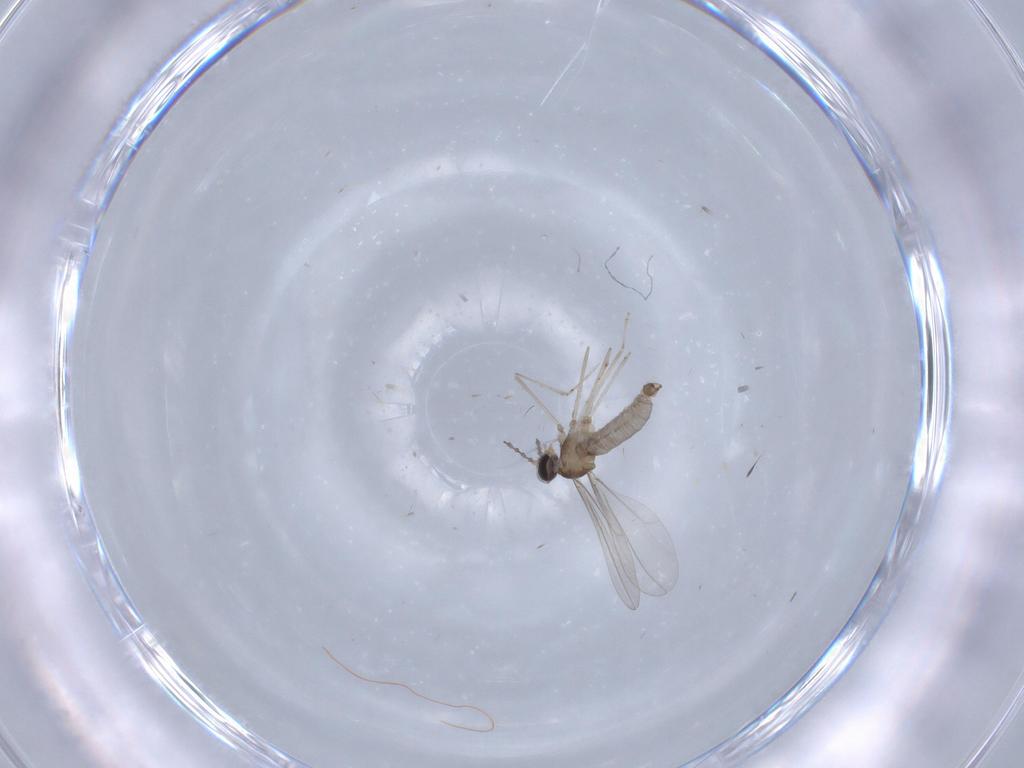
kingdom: Animalia
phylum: Arthropoda
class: Insecta
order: Diptera
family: Cecidomyiidae
